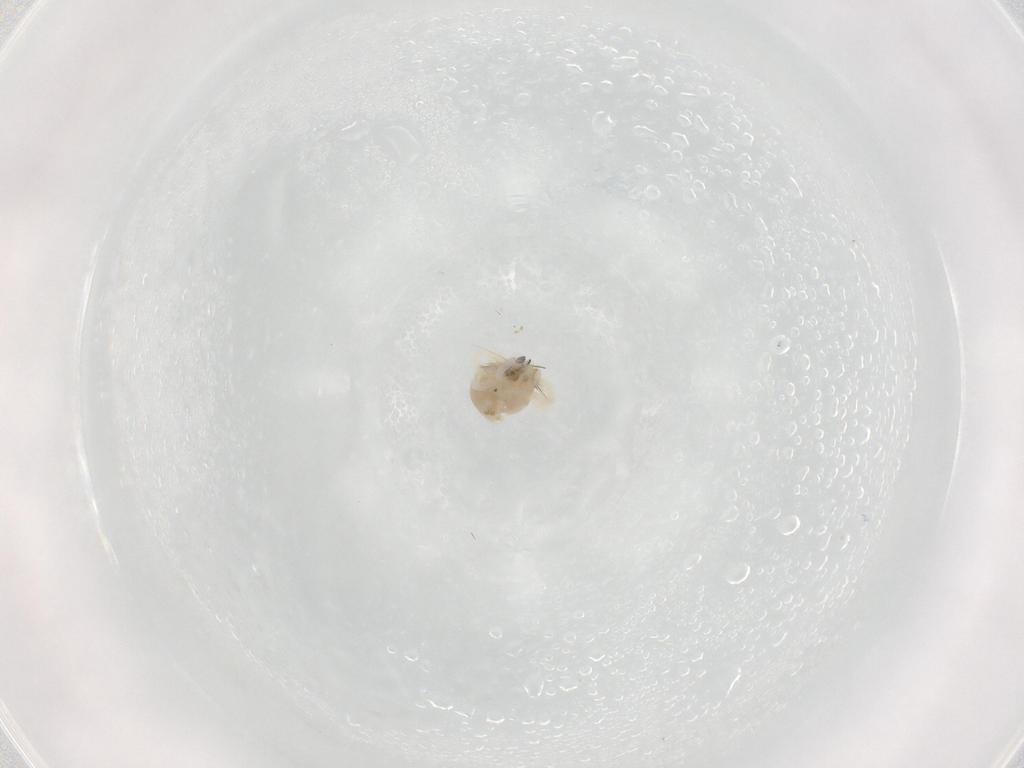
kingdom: Animalia
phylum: Arthropoda
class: Arachnida
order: Trombidiformes
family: Anystidae
